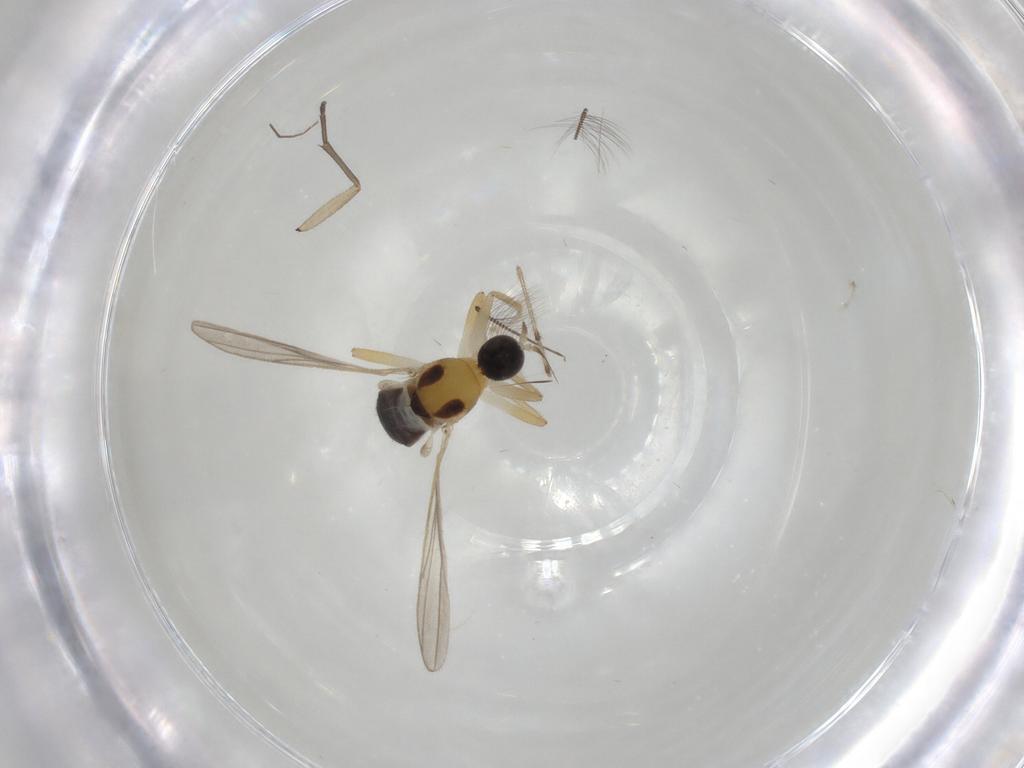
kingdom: Animalia
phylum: Arthropoda
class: Insecta
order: Diptera
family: Hybotidae
